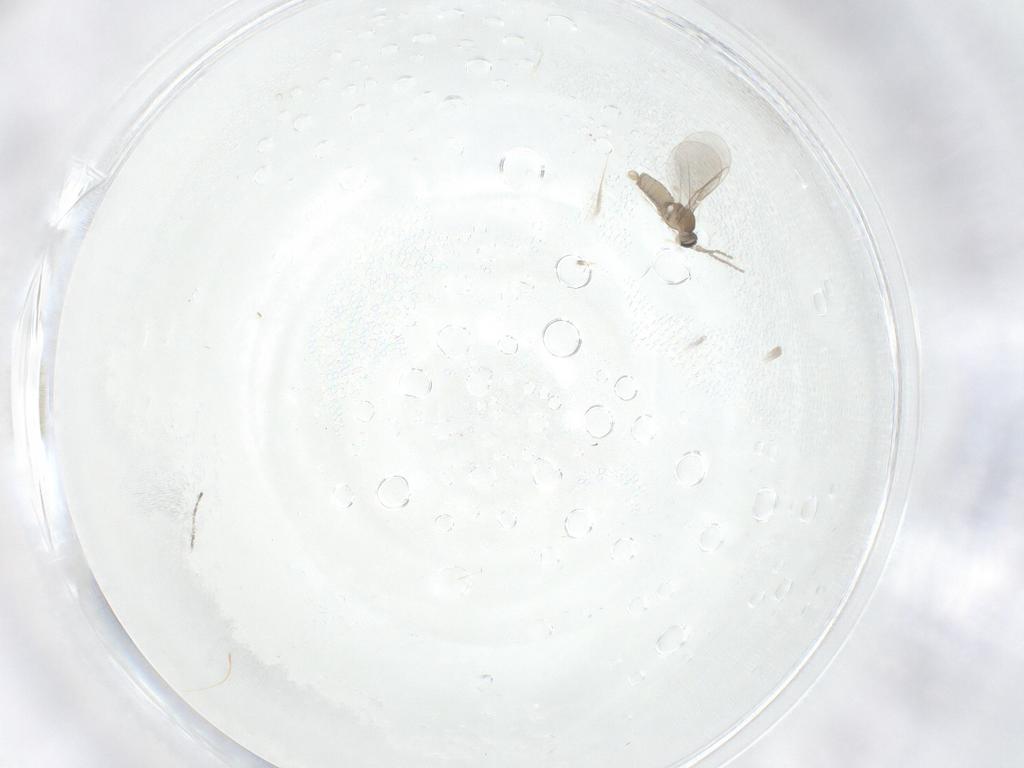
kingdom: Animalia
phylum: Arthropoda
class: Insecta
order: Diptera
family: Cecidomyiidae
